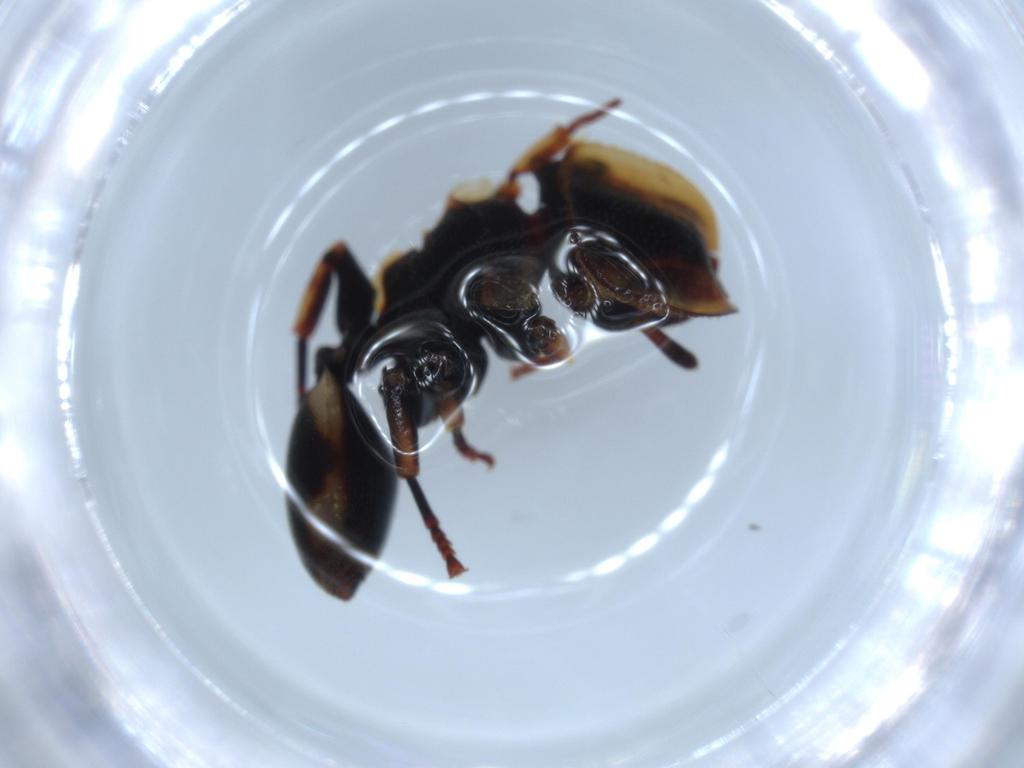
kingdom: Animalia
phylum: Arthropoda
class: Insecta
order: Hymenoptera
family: Formicidae
